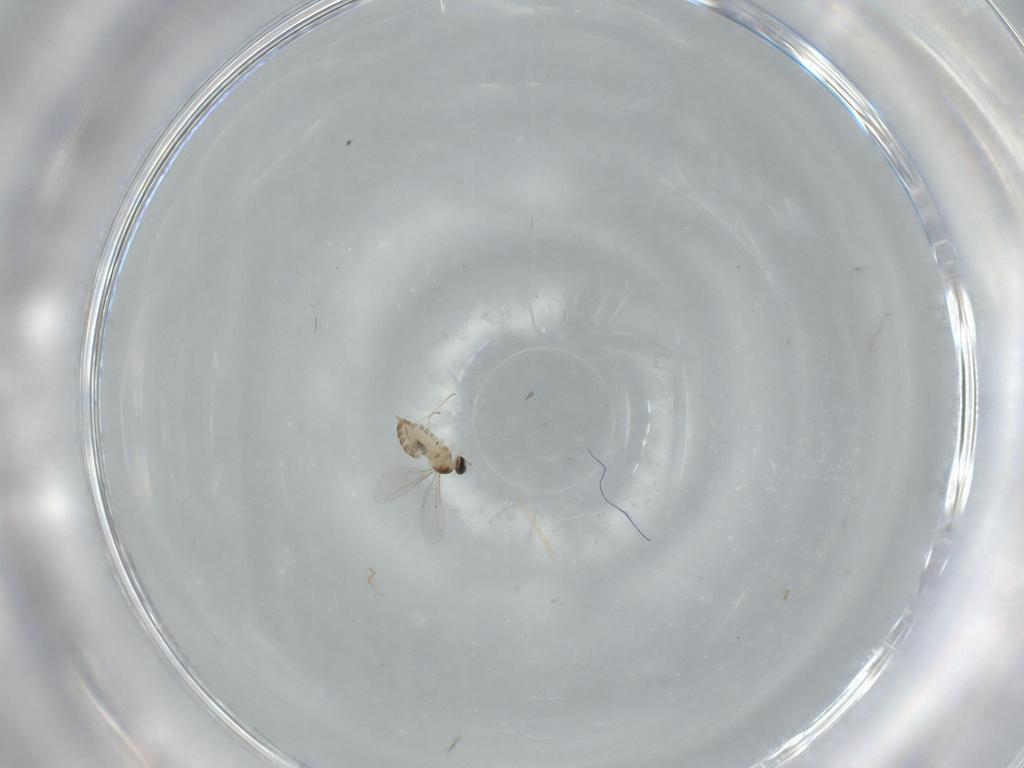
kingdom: Animalia
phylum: Arthropoda
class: Insecta
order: Diptera
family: Cecidomyiidae
